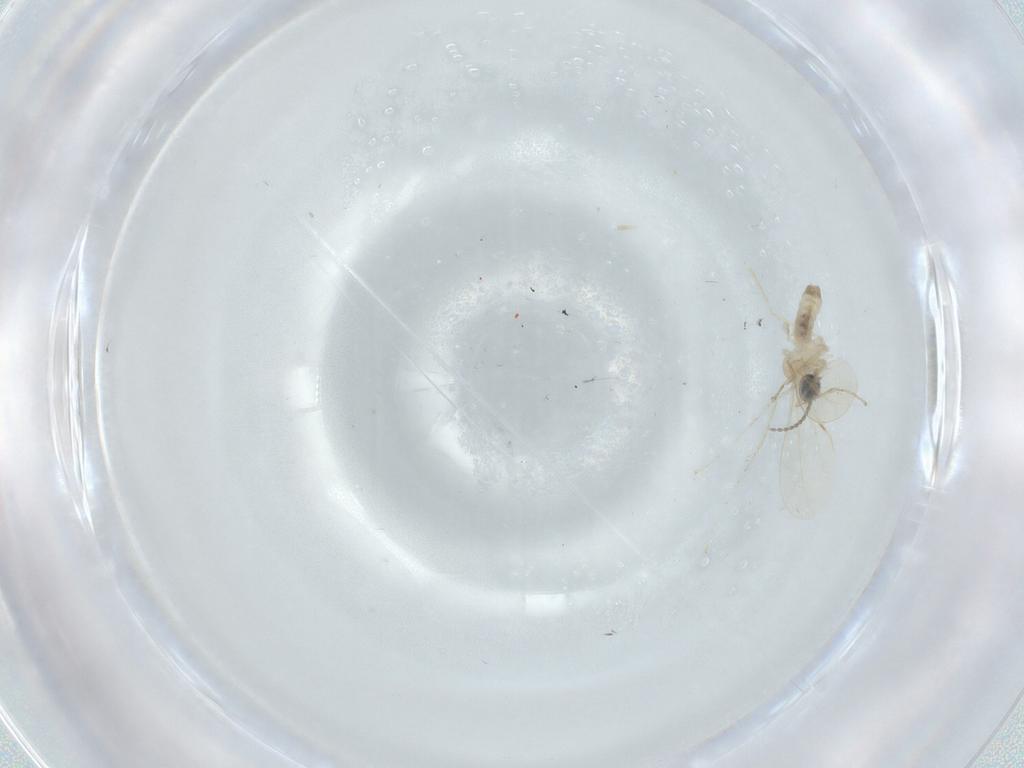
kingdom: Animalia
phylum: Arthropoda
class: Insecta
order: Diptera
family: Cecidomyiidae
